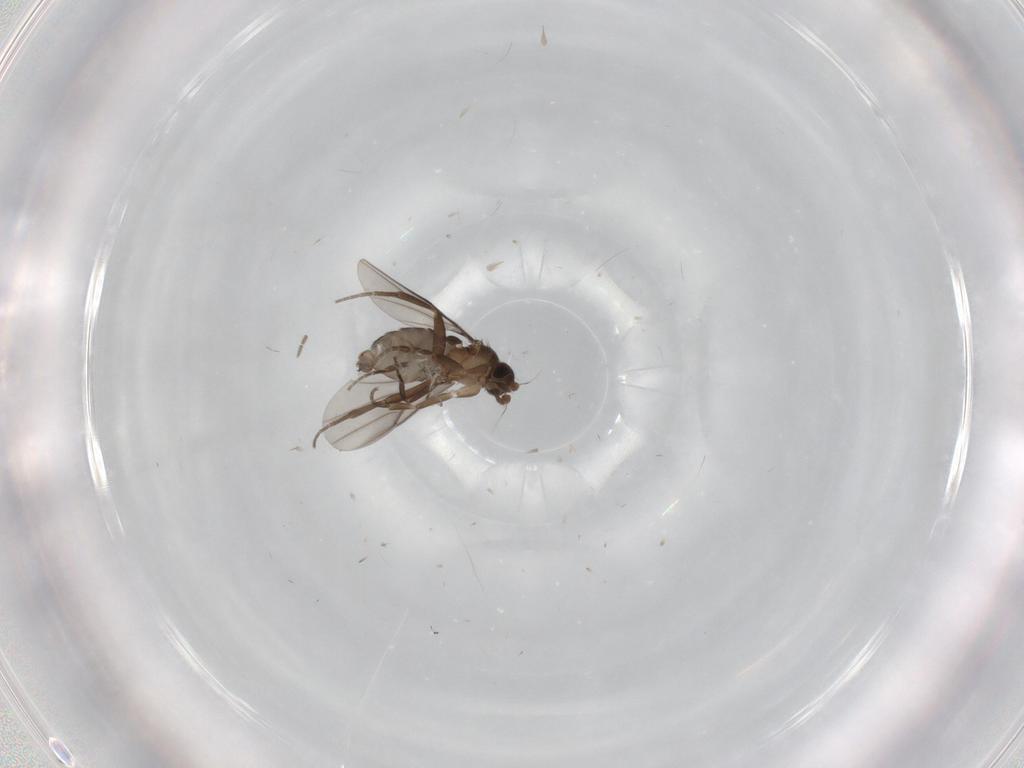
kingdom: Animalia
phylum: Arthropoda
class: Insecta
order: Diptera
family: Cecidomyiidae
